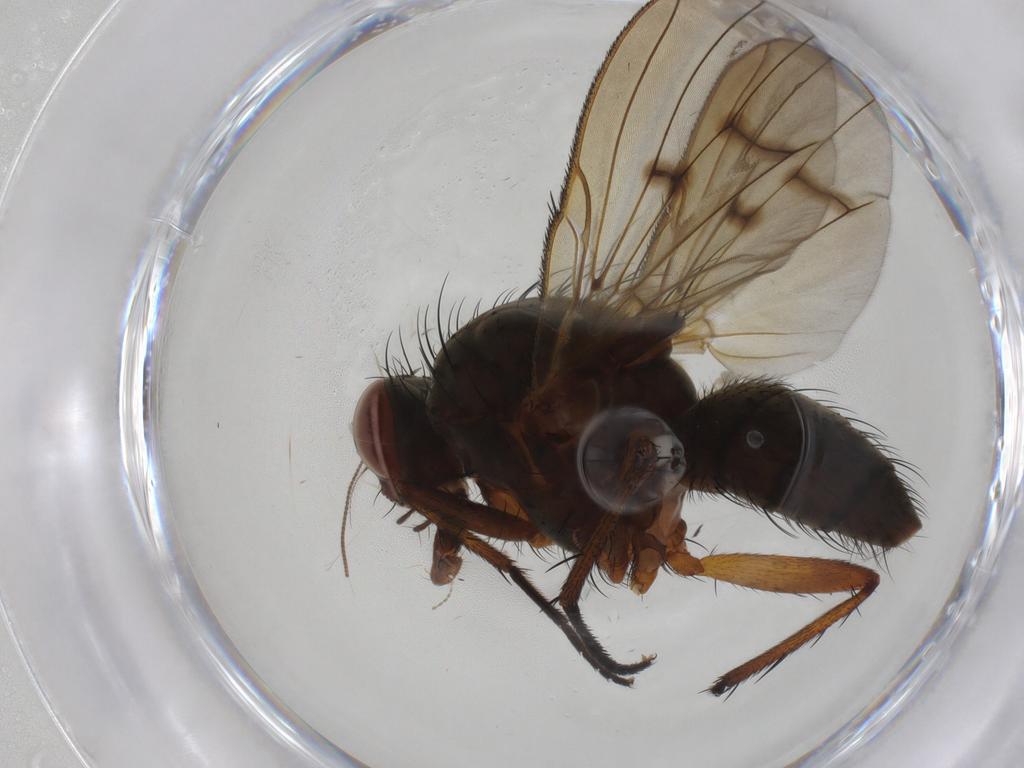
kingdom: Animalia
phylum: Arthropoda
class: Insecta
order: Diptera
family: Anthomyiidae
